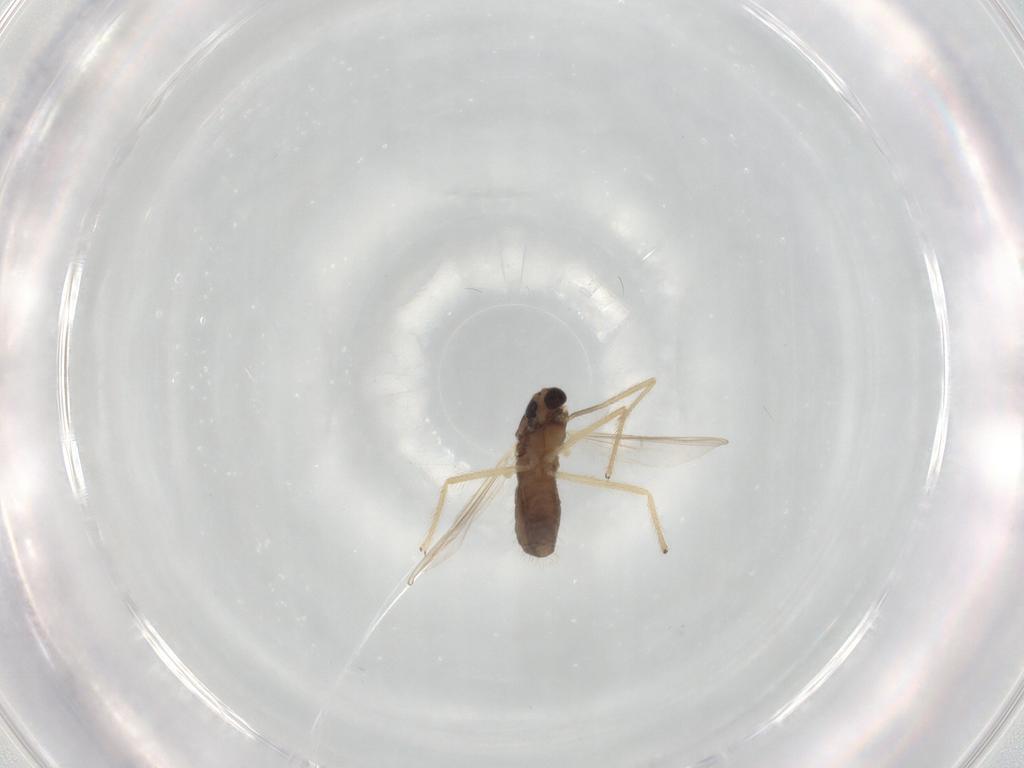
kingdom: Animalia
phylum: Arthropoda
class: Insecta
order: Diptera
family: Chironomidae
